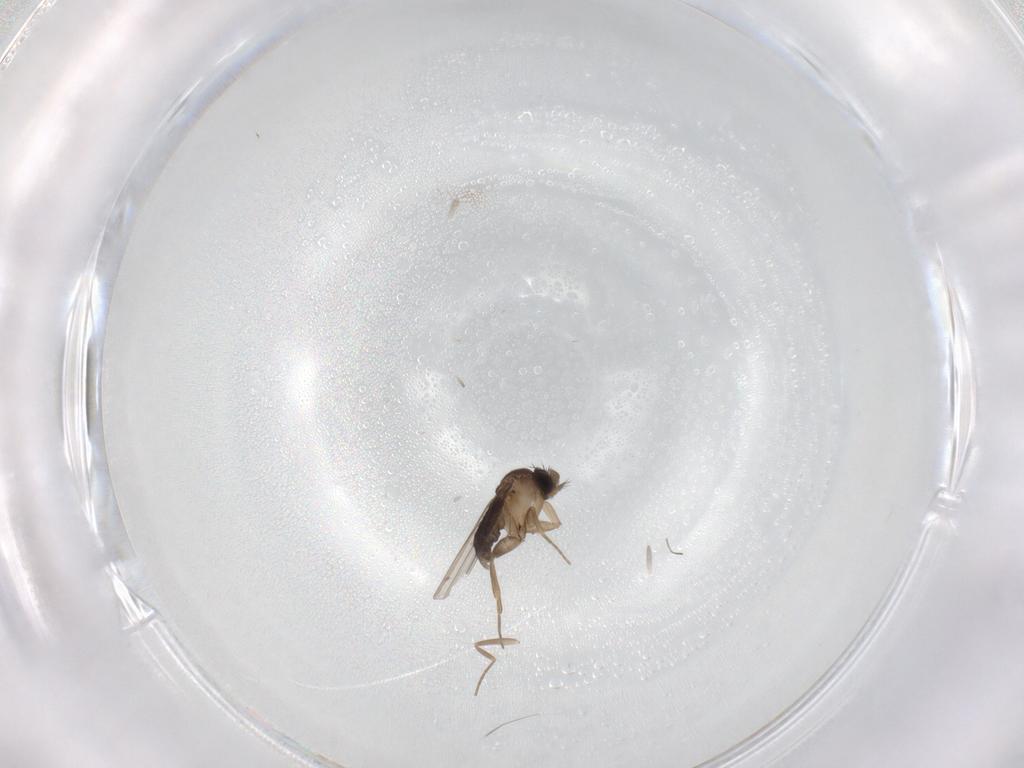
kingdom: Animalia
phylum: Arthropoda
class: Insecta
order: Diptera
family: Phoridae
